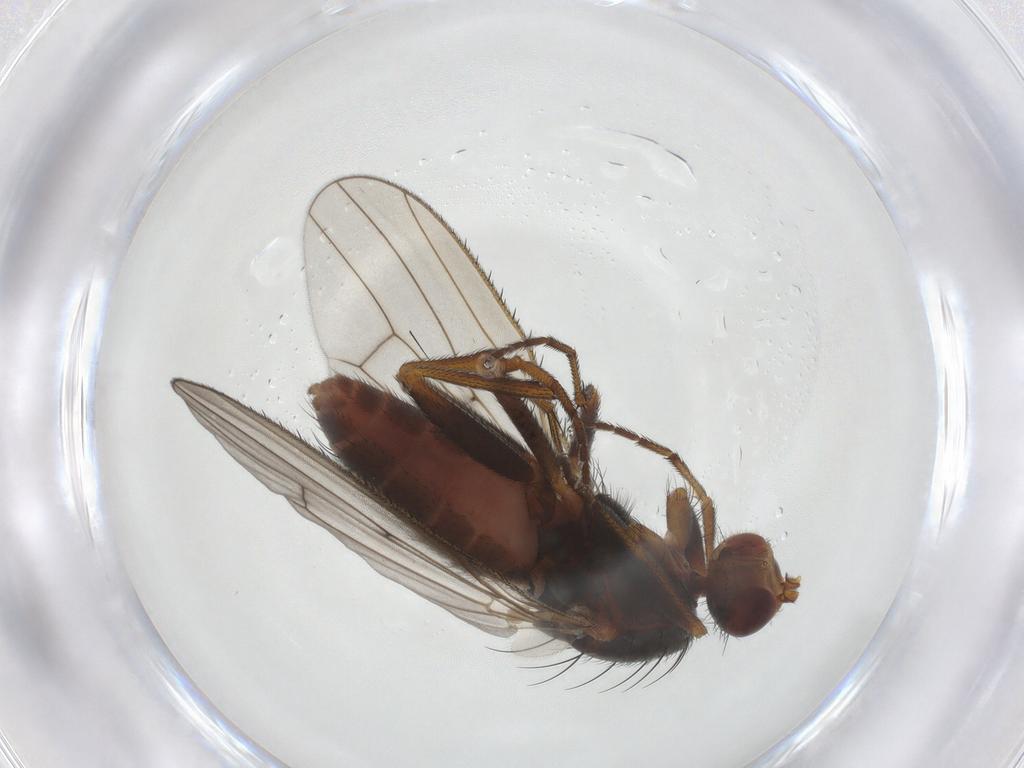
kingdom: Animalia
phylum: Arthropoda
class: Insecta
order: Diptera
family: Heleomyzidae
